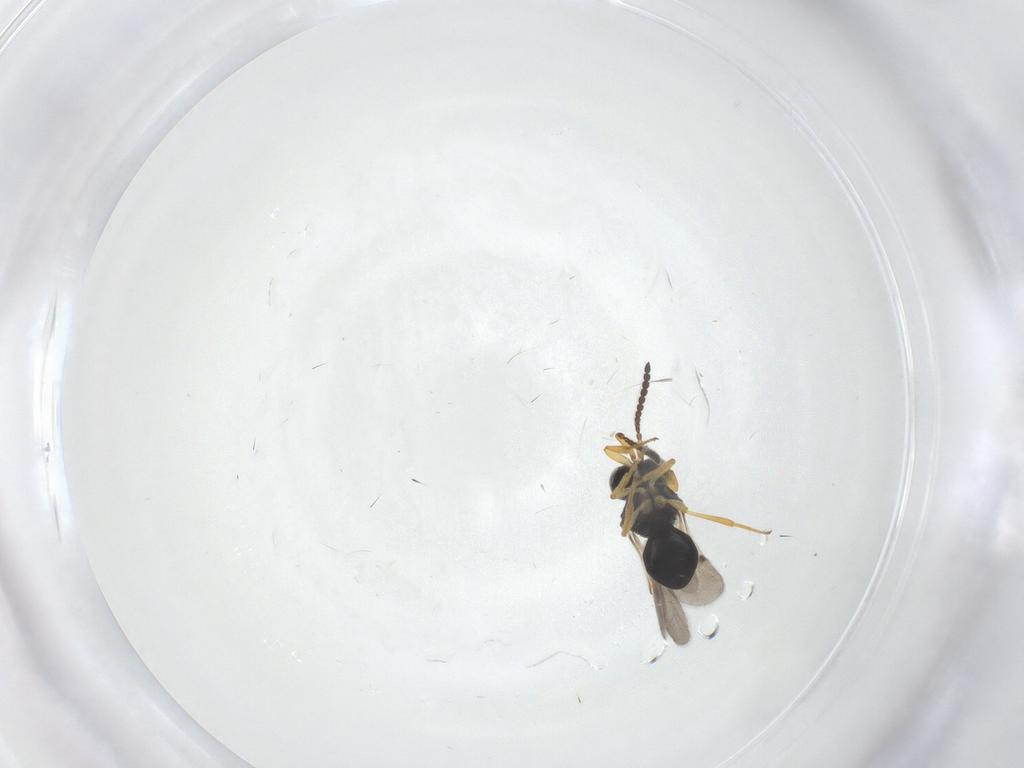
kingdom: Animalia
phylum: Arthropoda
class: Insecta
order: Hymenoptera
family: Scelionidae
